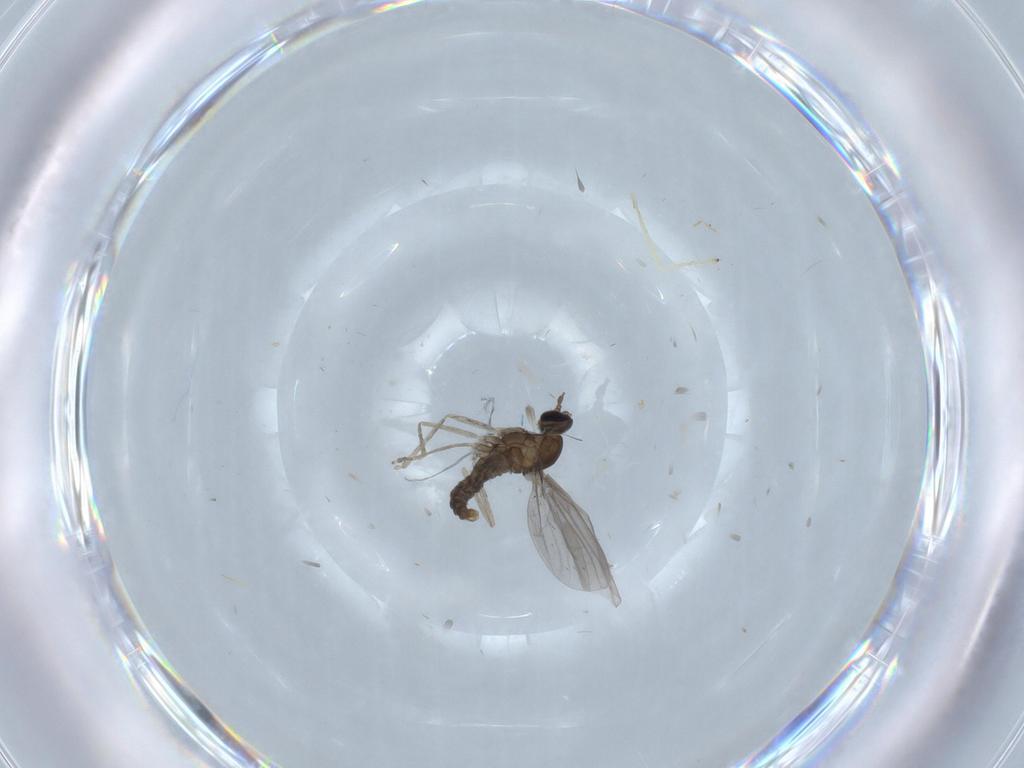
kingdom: Animalia
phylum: Arthropoda
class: Insecta
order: Diptera
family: Cecidomyiidae
